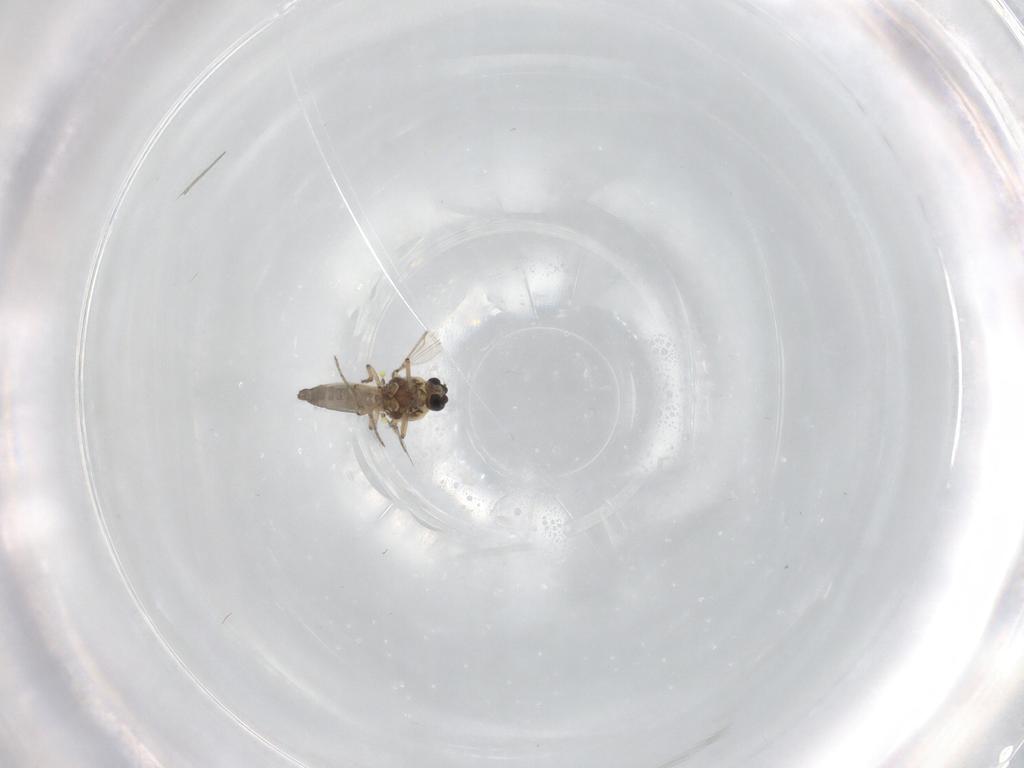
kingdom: Animalia
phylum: Arthropoda
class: Insecta
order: Diptera
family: Ceratopogonidae
